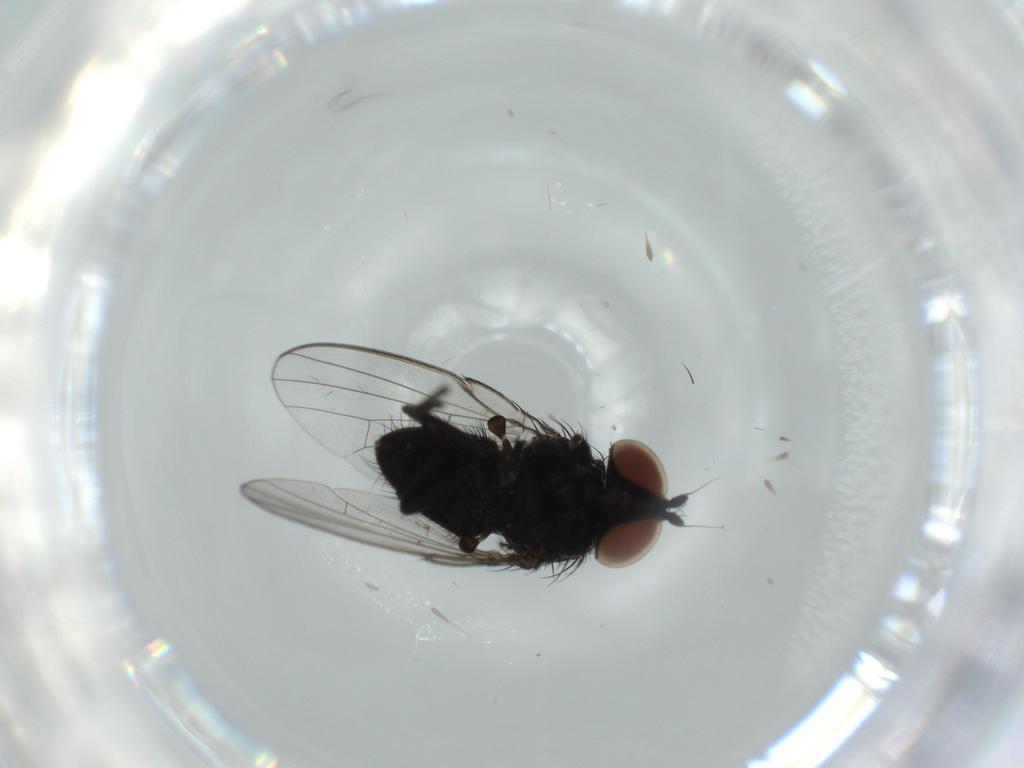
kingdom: Animalia
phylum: Arthropoda
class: Insecta
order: Diptera
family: Milichiidae
